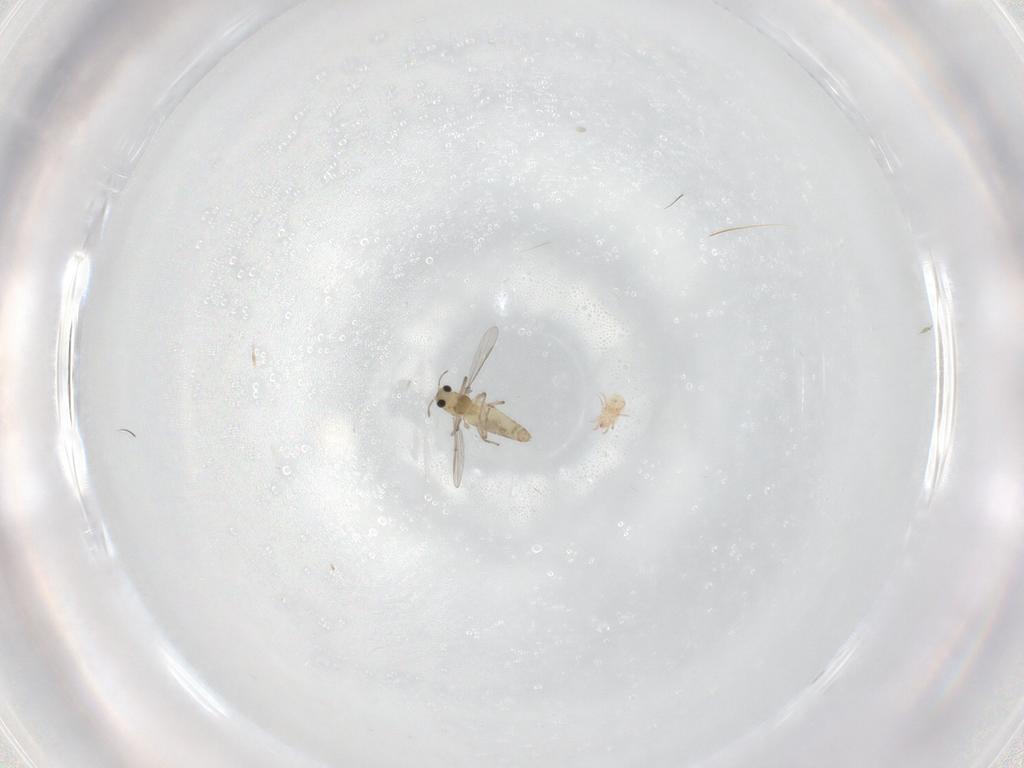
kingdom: Animalia
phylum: Arthropoda
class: Insecta
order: Diptera
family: Chironomidae
